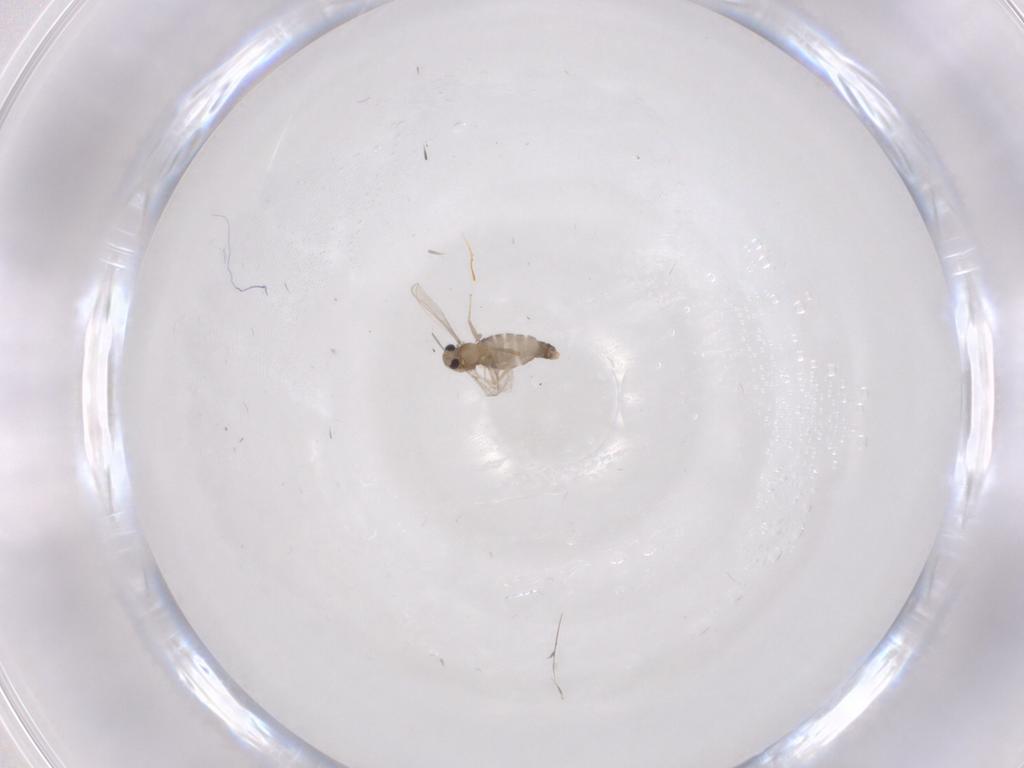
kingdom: Animalia
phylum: Arthropoda
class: Insecta
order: Diptera
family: Chironomidae
